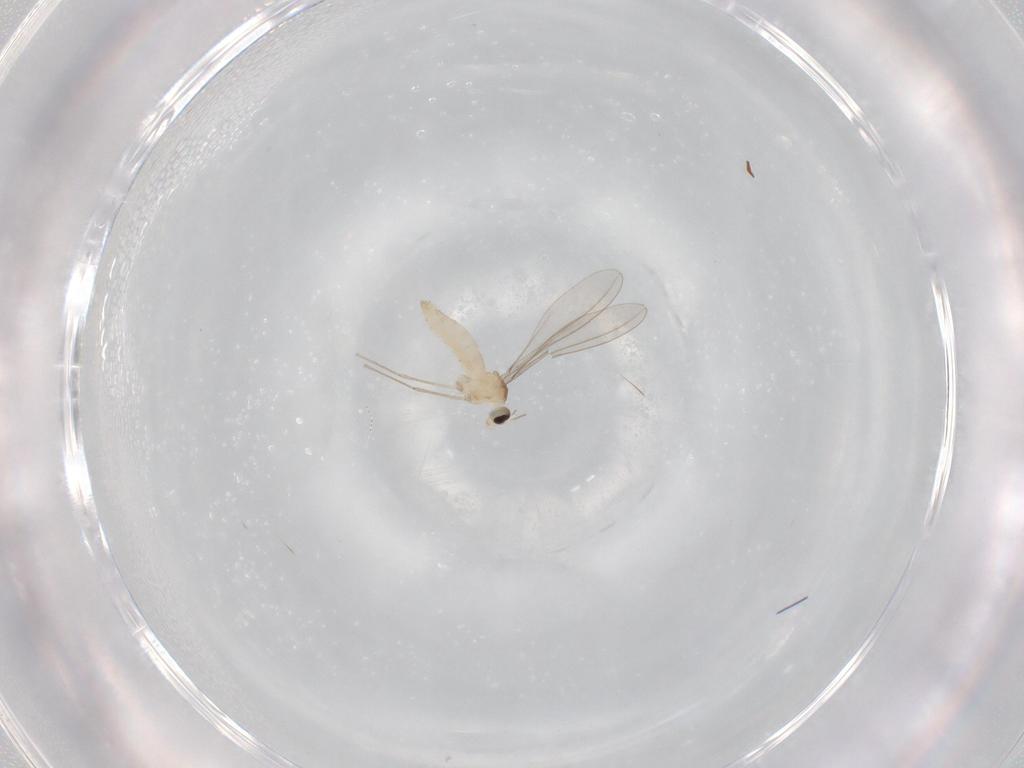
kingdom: Animalia
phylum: Arthropoda
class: Insecta
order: Diptera
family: Cecidomyiidae
